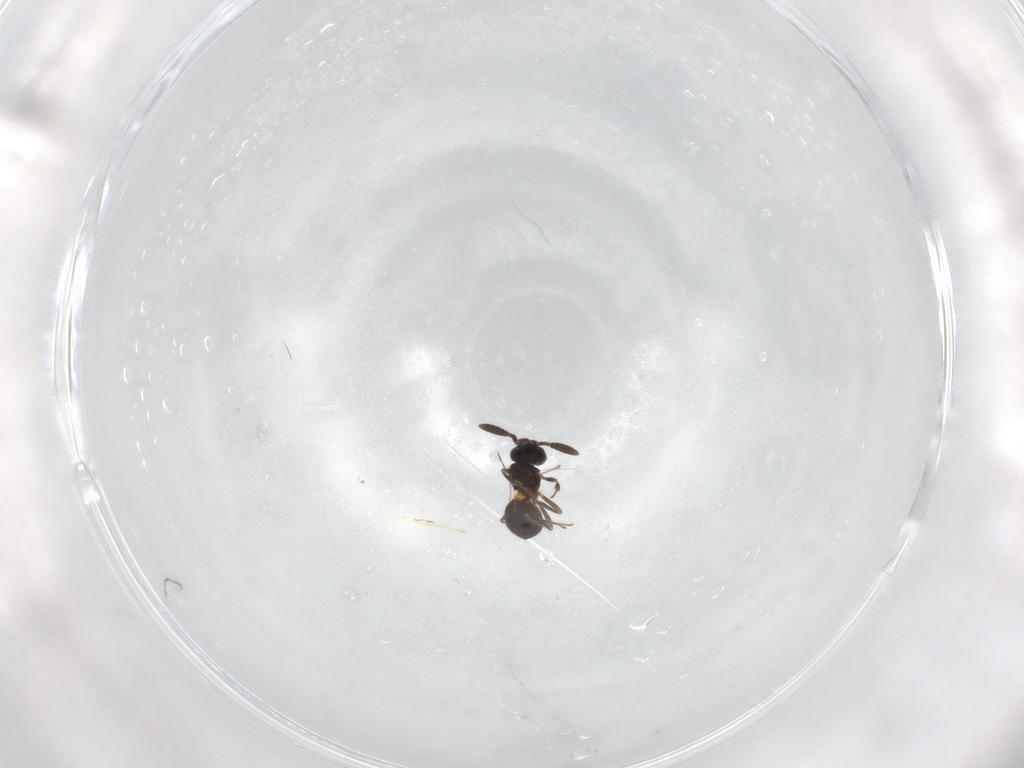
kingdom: Animalia
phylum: Arthropoda
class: Insecta
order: Hymenoptera
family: Scelionidae
